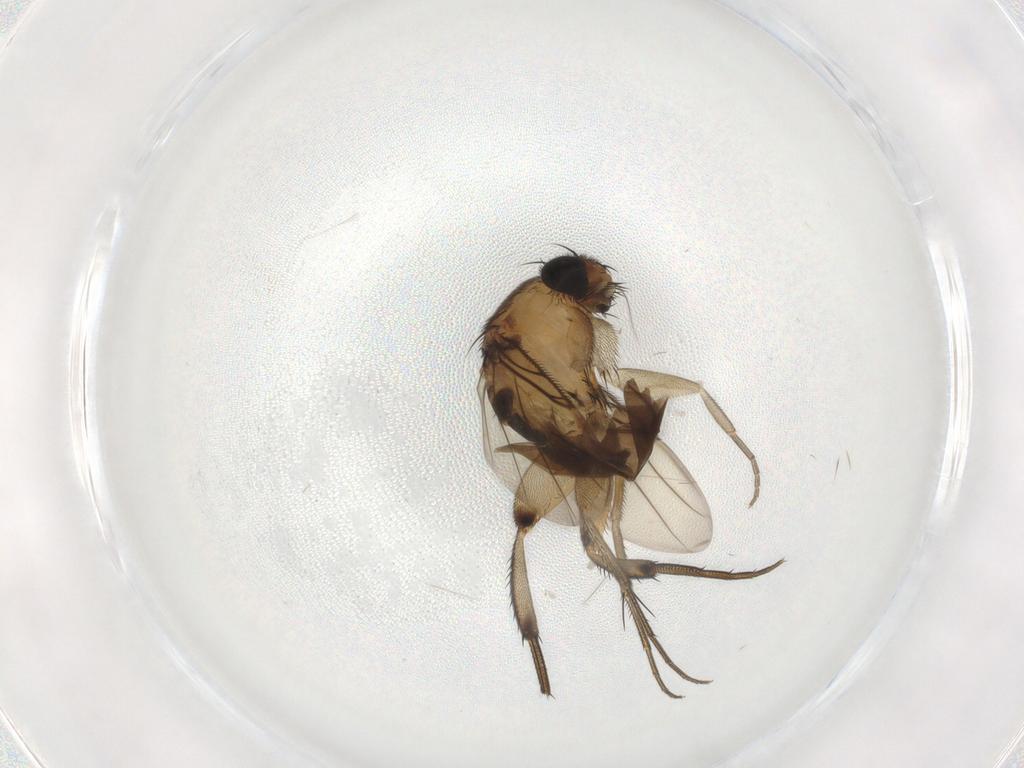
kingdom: Animalia
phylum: Arthropoda
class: Insecta
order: Diptera
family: Phoridae
